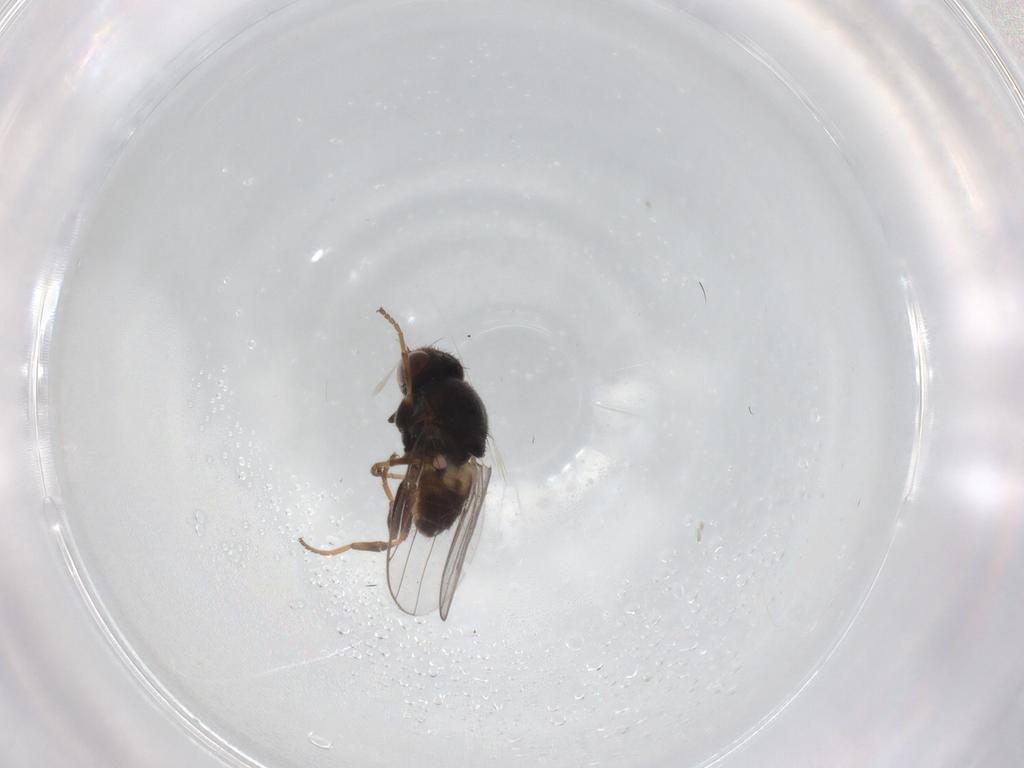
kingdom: Animalia
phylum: Arthropoda
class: Insecta
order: Diptera
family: Chloropidae
